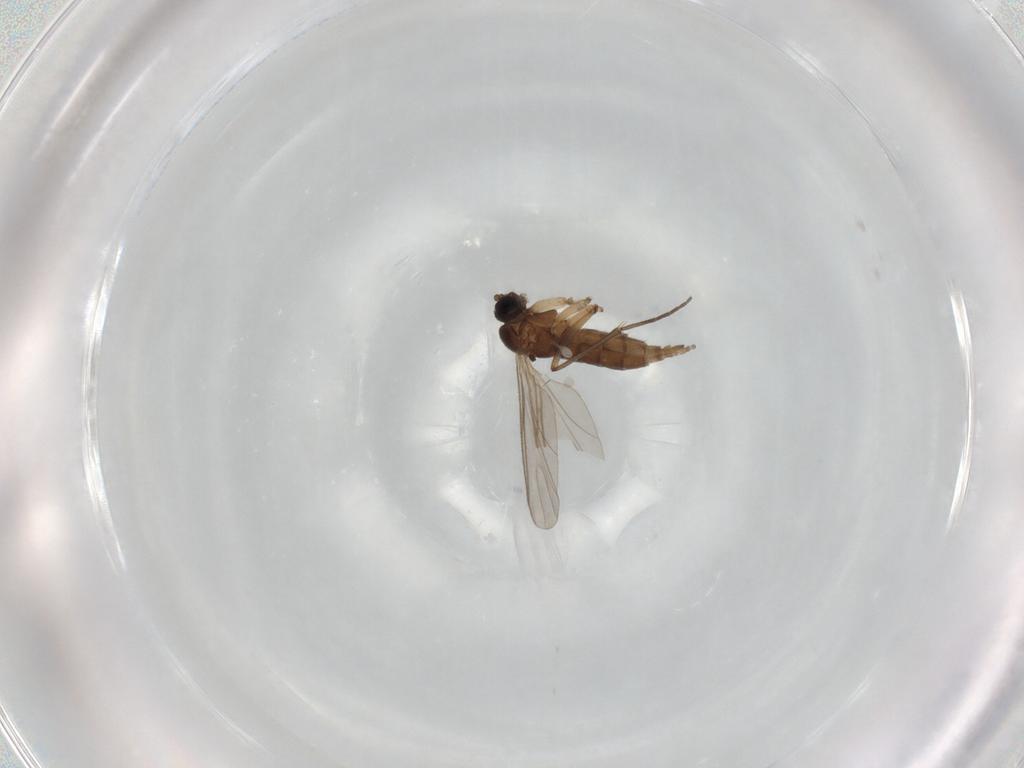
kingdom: Animalia
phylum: Arthropoda
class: Insecta
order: Diptera
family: Sciaridae
